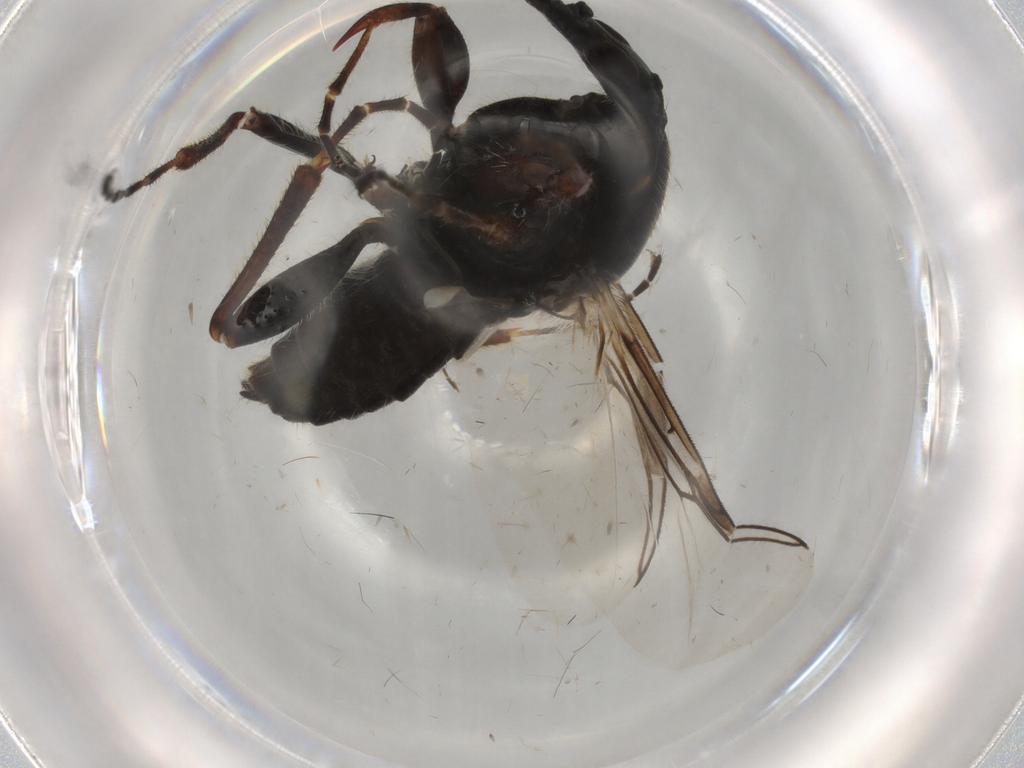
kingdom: Animalia
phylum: Arthropoda
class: Insecta
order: Diptera
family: Bibionidae
